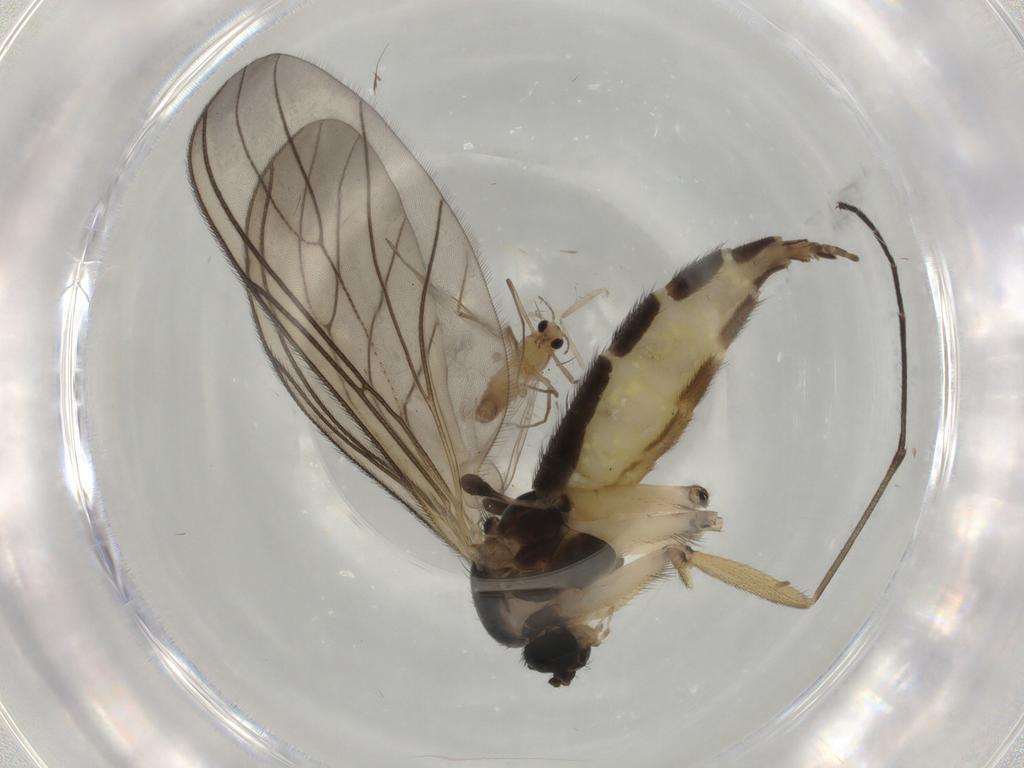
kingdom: Animalia
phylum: Arthropoda
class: Insecta
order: Diptera
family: Sciaridae
